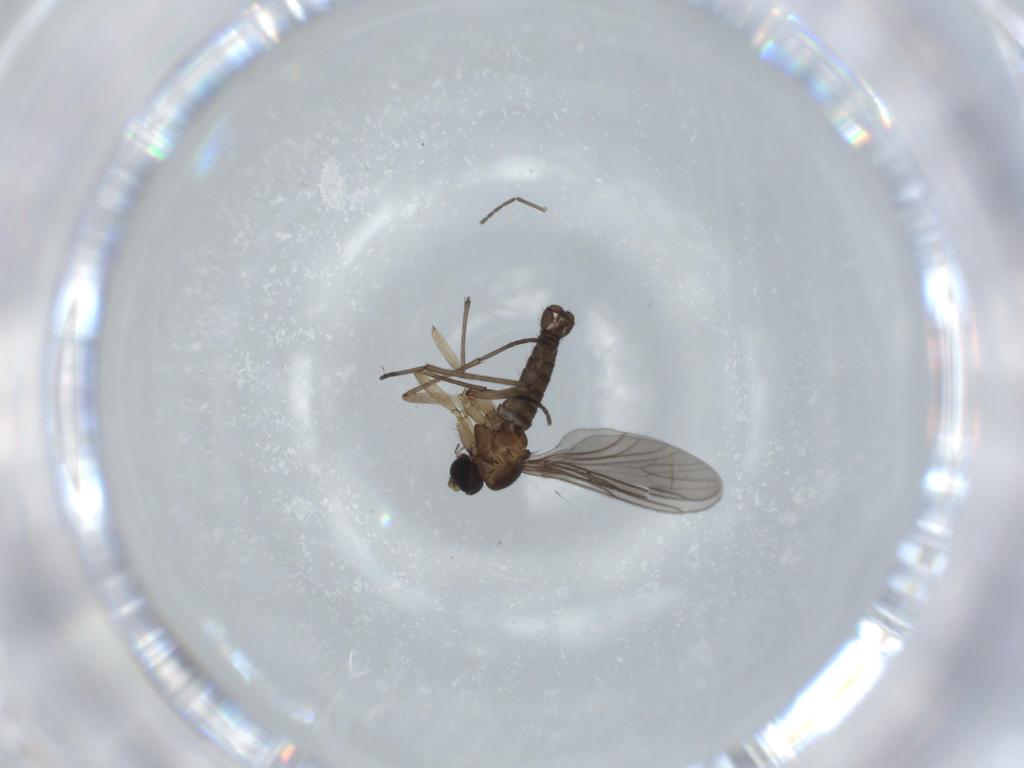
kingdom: Animalia
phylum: Arthropoda
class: Insecta
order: Diptera
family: Sciaridae
